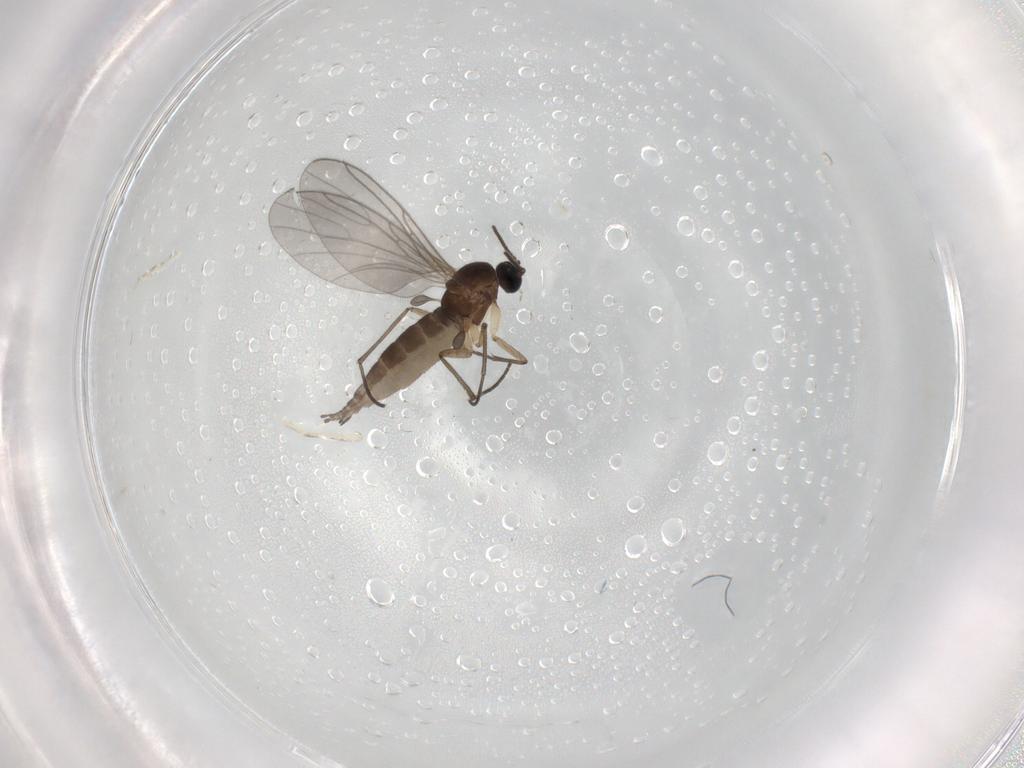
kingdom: Animalia
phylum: Arthropoda
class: Insecta
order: Diptera
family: Sciaridae
